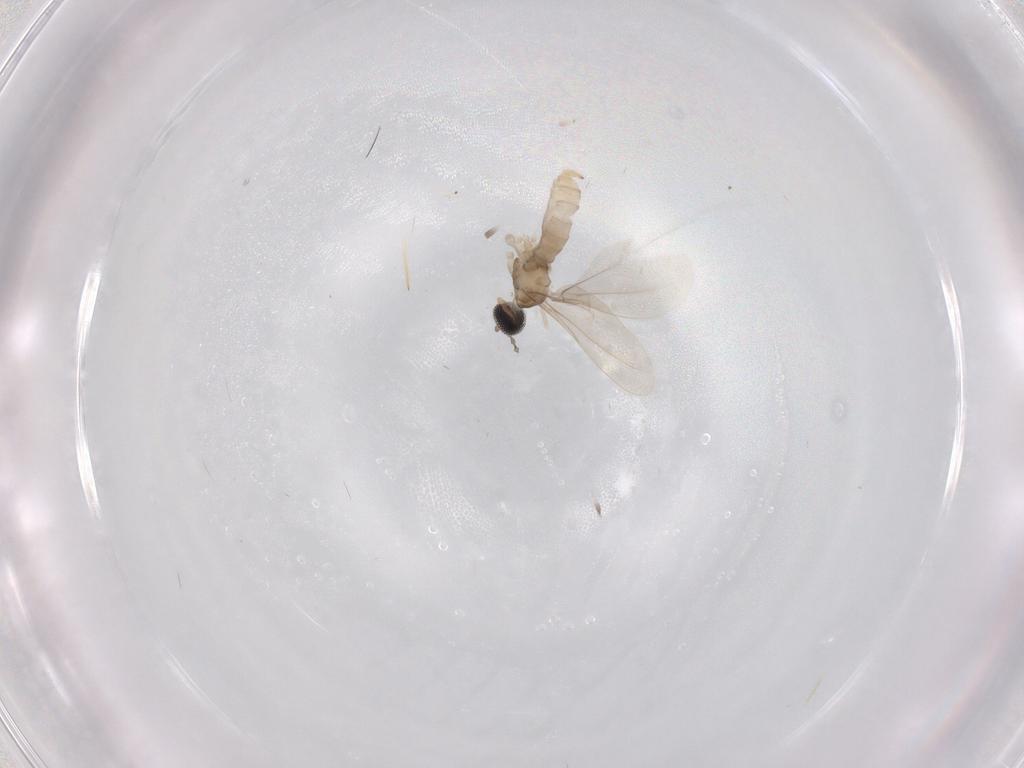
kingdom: Animalia
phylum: Arthropoda
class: Insecta
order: Diptera
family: Cecidomyiidae
